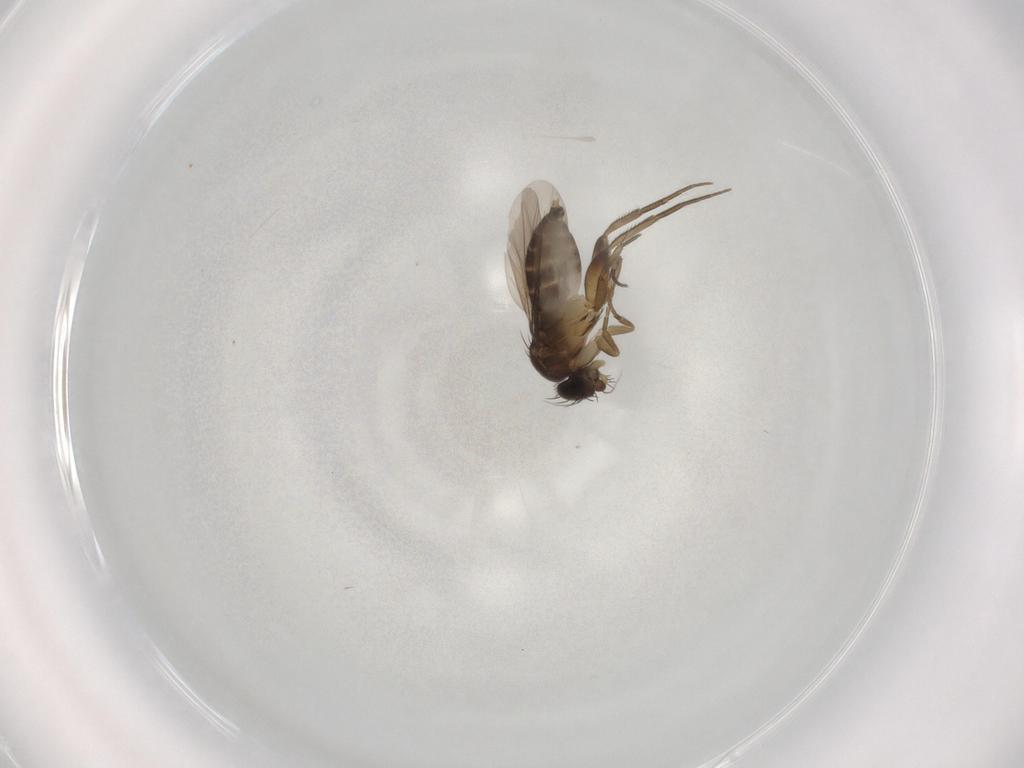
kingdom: Animalia
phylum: Arthropoda
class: Insecta
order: Diptera
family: Phoridae
